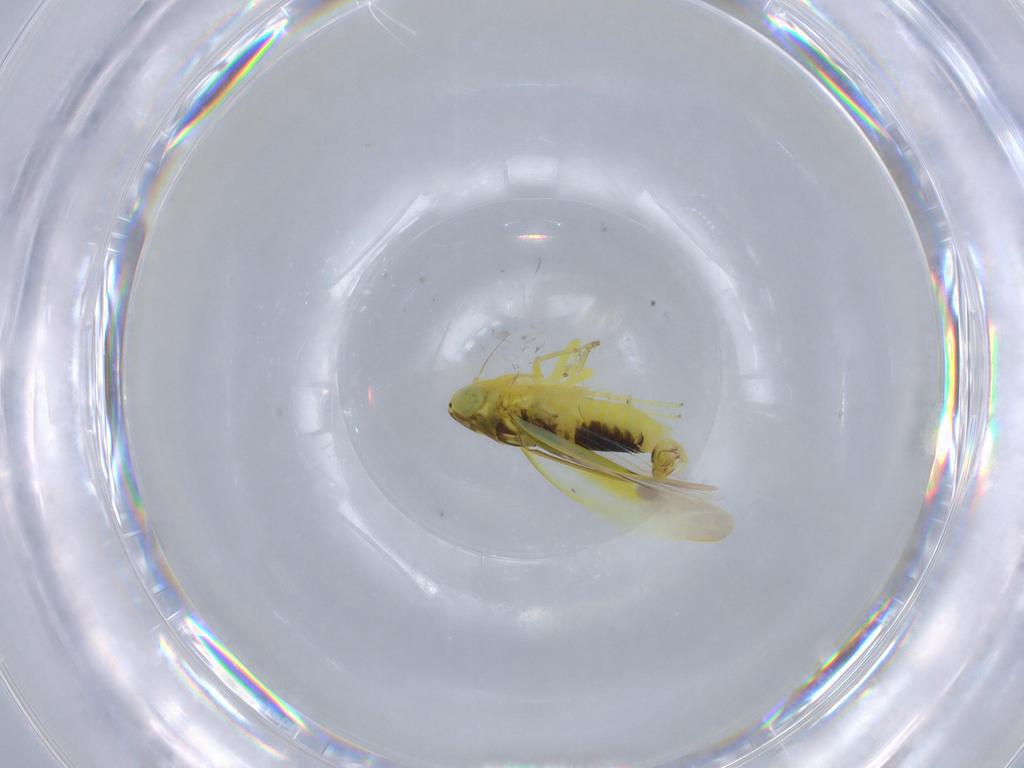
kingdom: Animalia
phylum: Arthropoda
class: Insecta
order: Hemiptera
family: Cicadellidae
